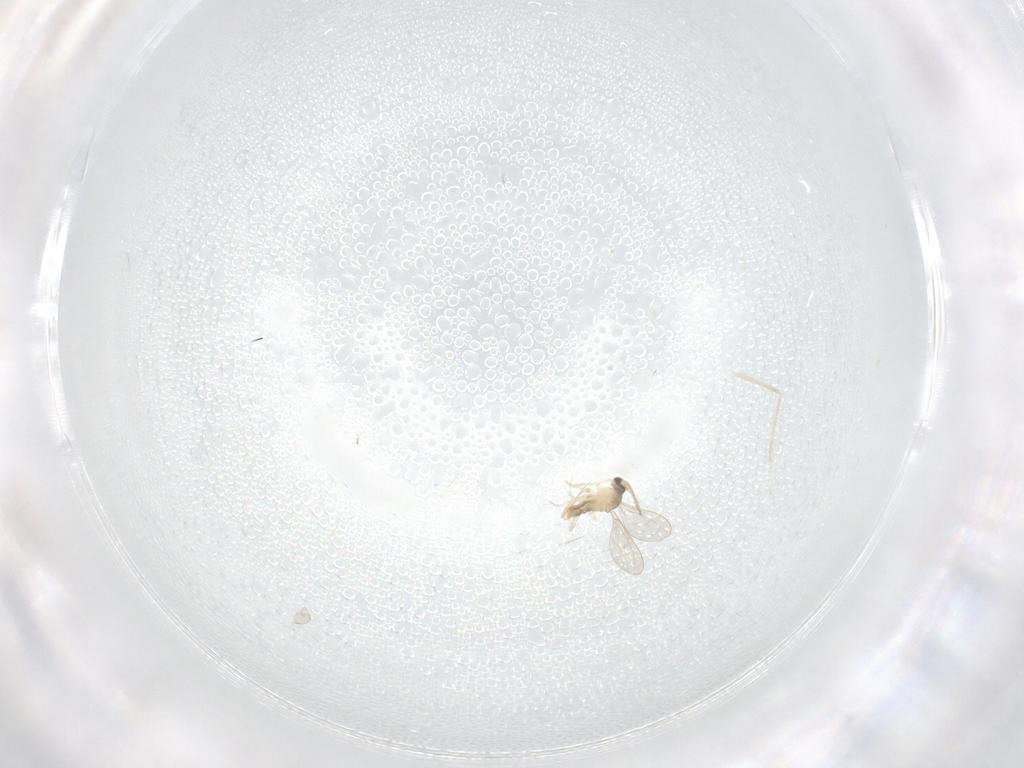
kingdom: Animalia
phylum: Arthropoda
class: Insecta
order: Diptera
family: Cecidomyiidae
